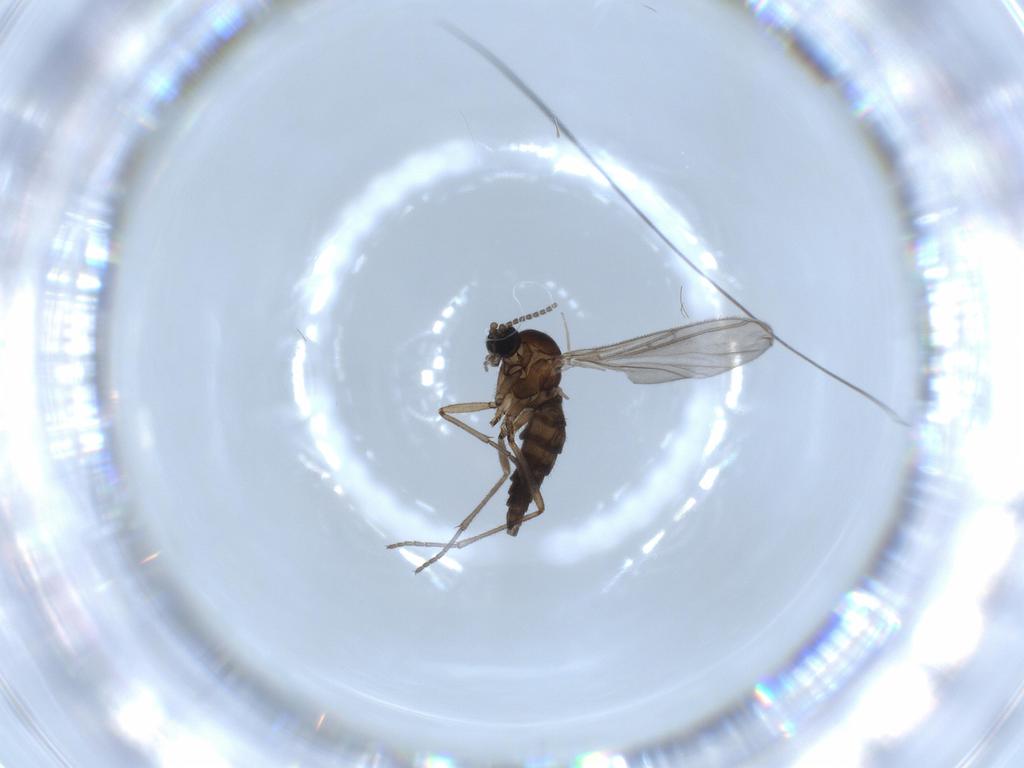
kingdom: Animalia
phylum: Arthropoda
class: Insecta
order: Diptera
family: Sciaridae
